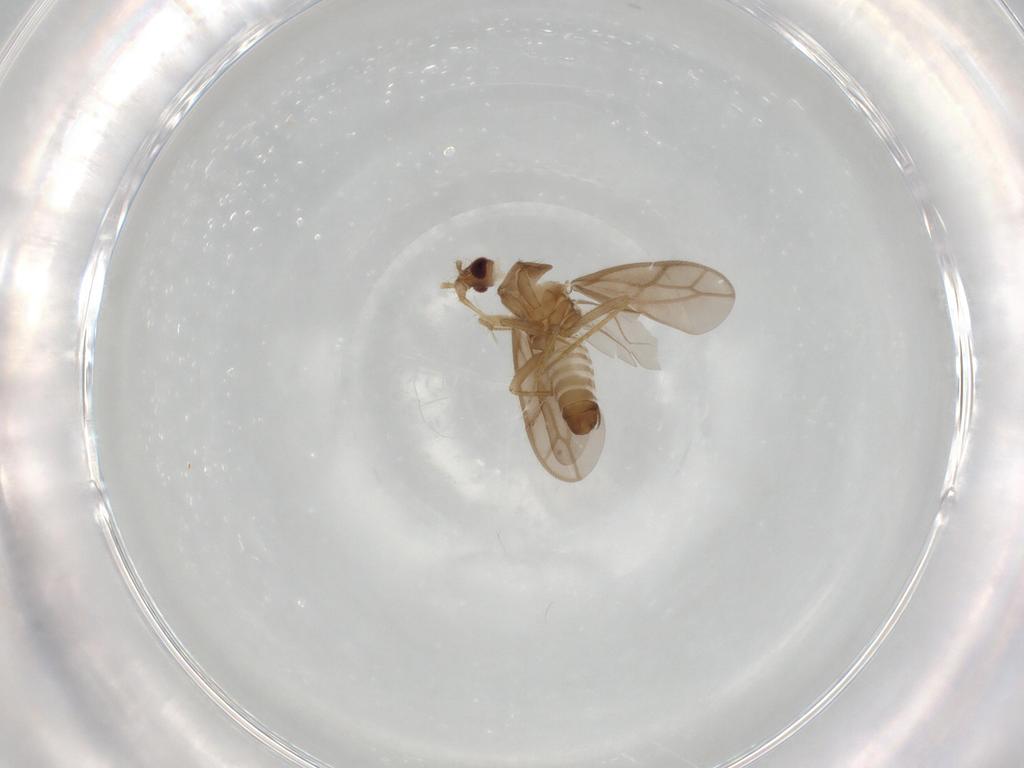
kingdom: Animalia
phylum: Arthropoda
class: Insecta
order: Hemiptera
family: Ceratocombidae
